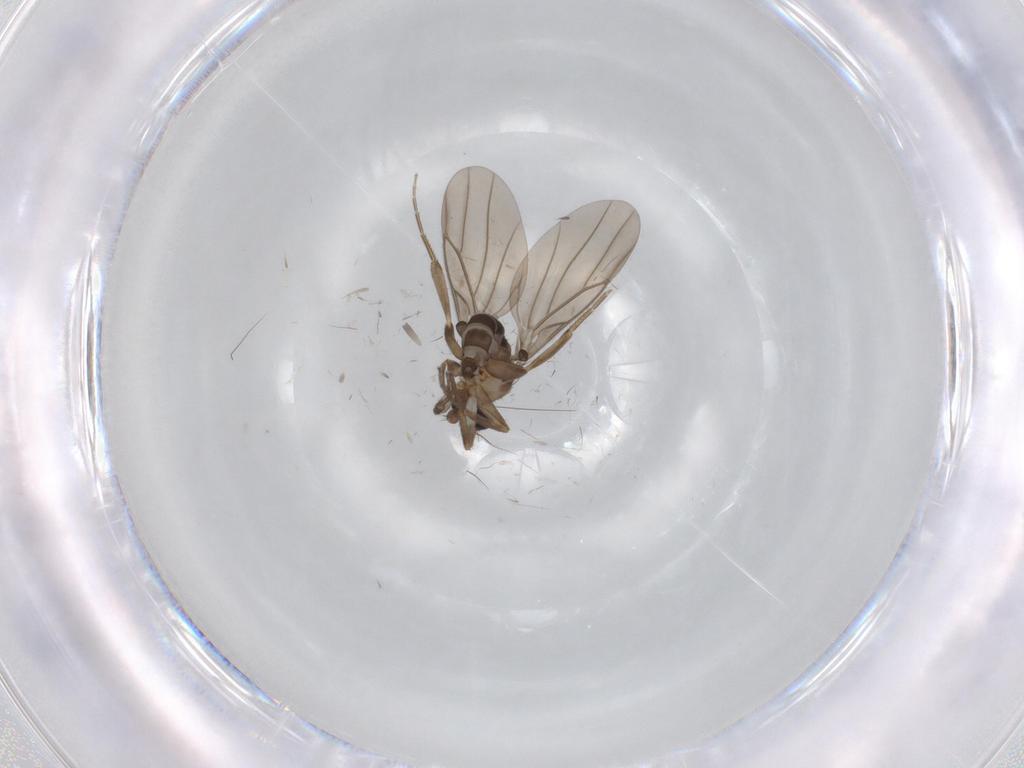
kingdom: Animalia
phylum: Arthropoda
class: Insecta
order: Diptera
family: Limoniidae
